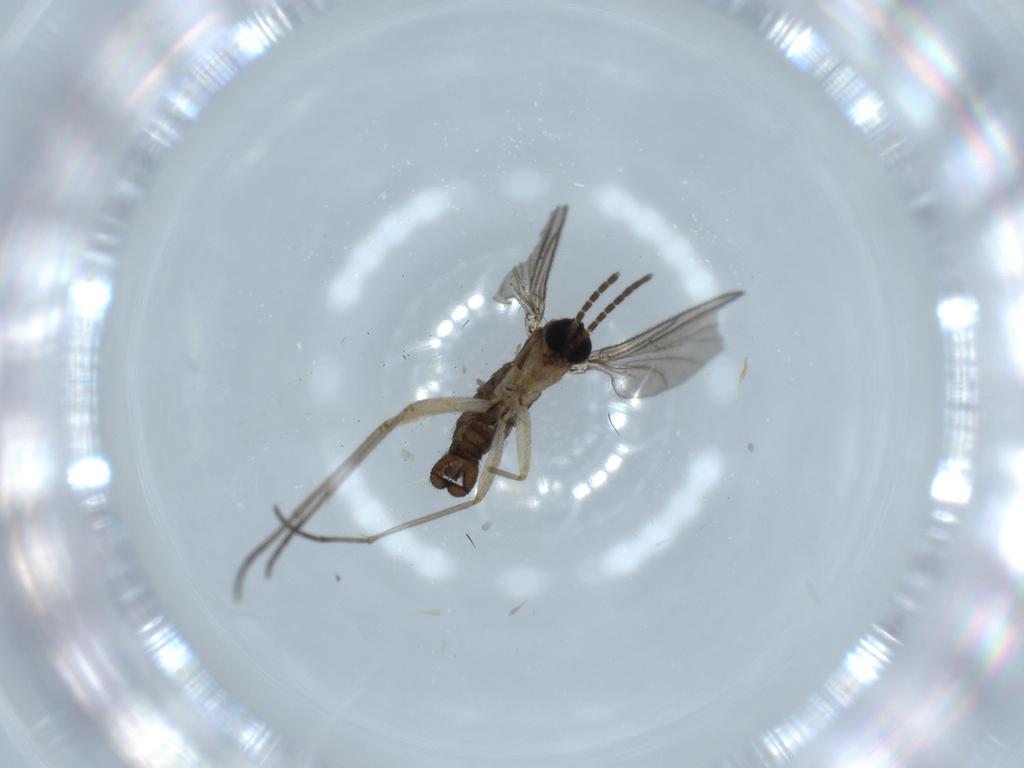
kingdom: Animalia
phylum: Arthropoda
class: Insecta
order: Diptera
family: Sciaridae
